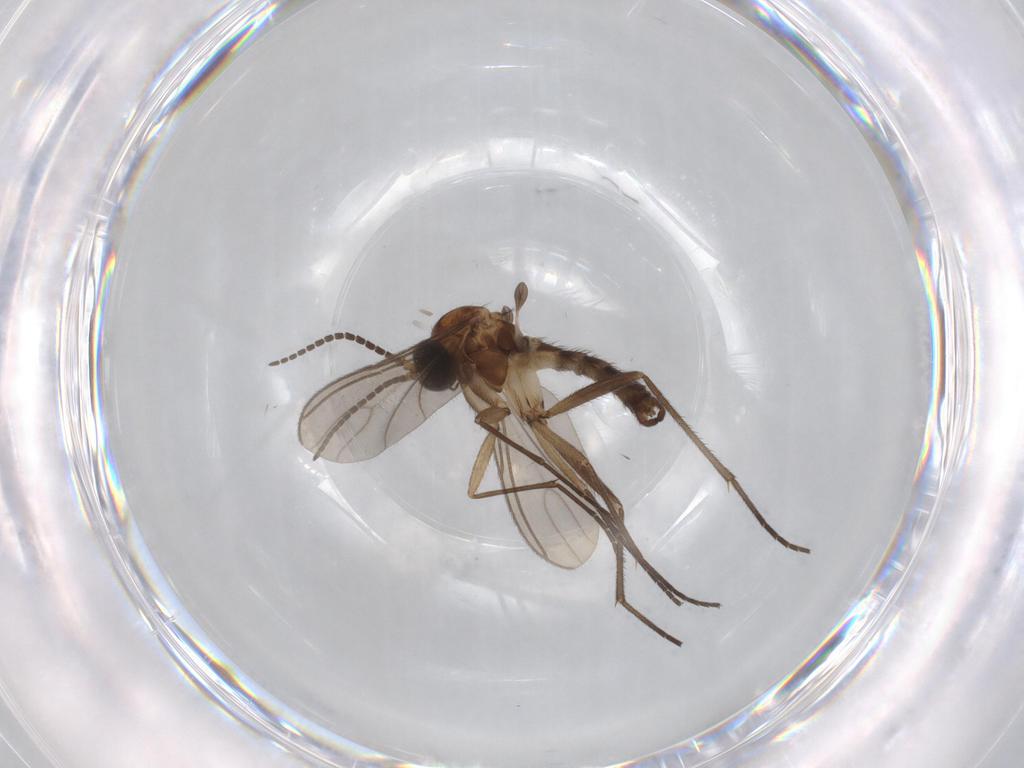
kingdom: Animalia
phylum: Arthropoda
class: Insecta
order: Diptera
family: Sciaridae
